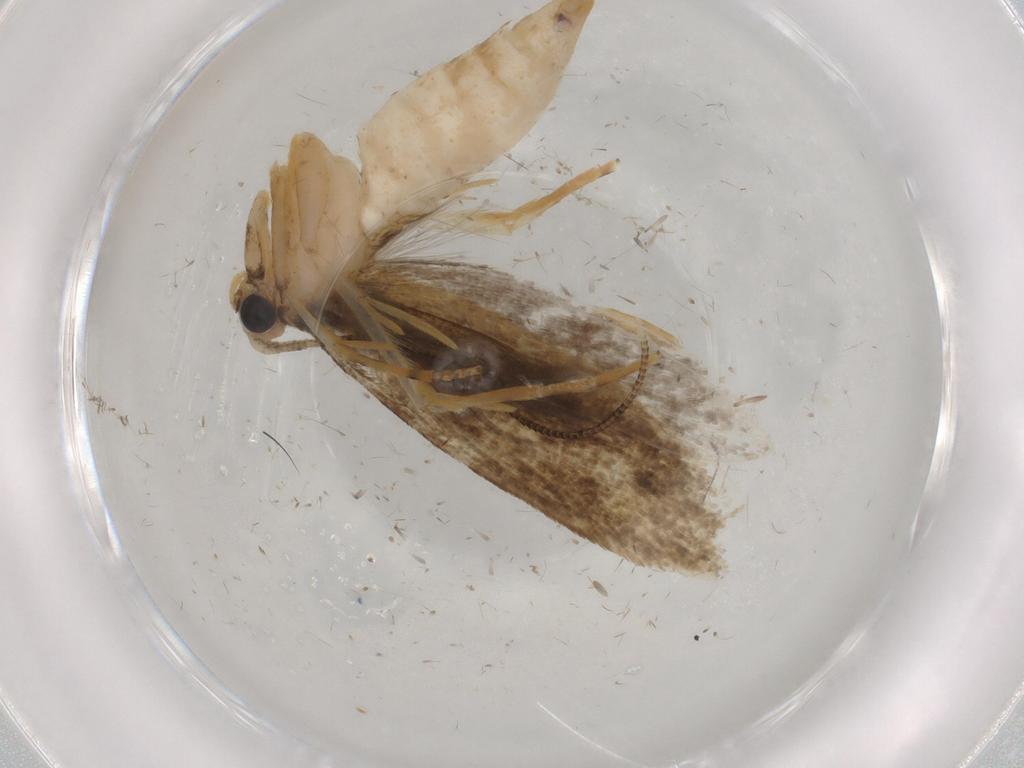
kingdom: Animalia
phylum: Arthropoda
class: Insecta
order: Lepidoptera
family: Tineidae
